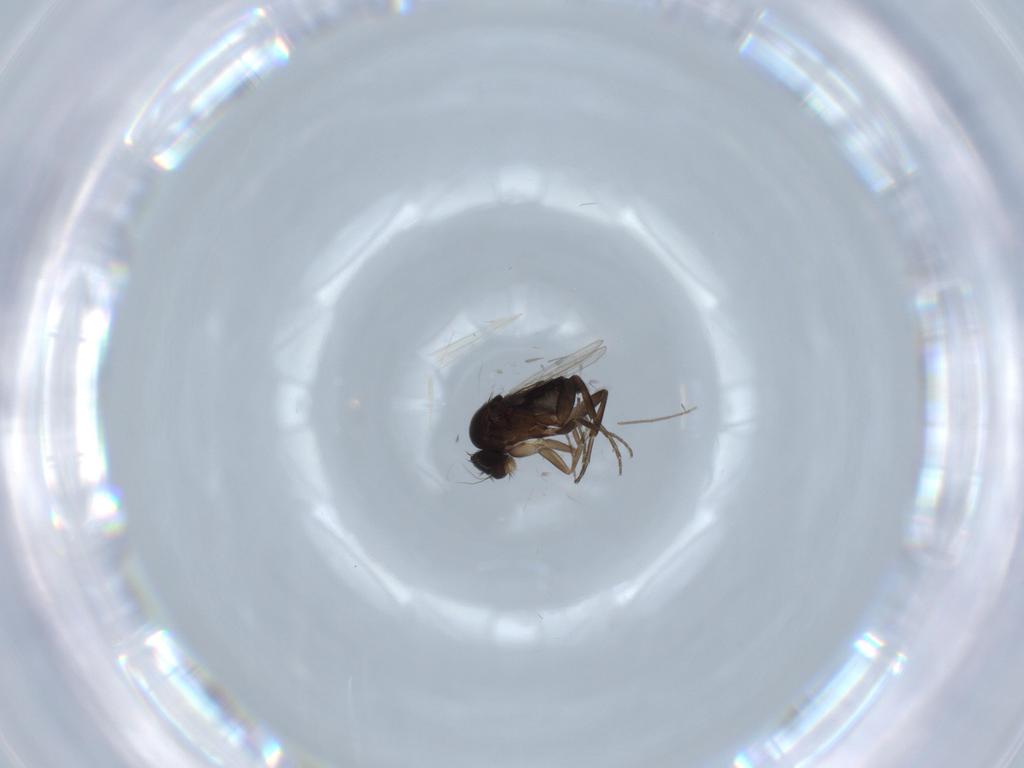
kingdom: Animalia
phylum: Arthropoda
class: Insecta
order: Diptera
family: Phoridae
